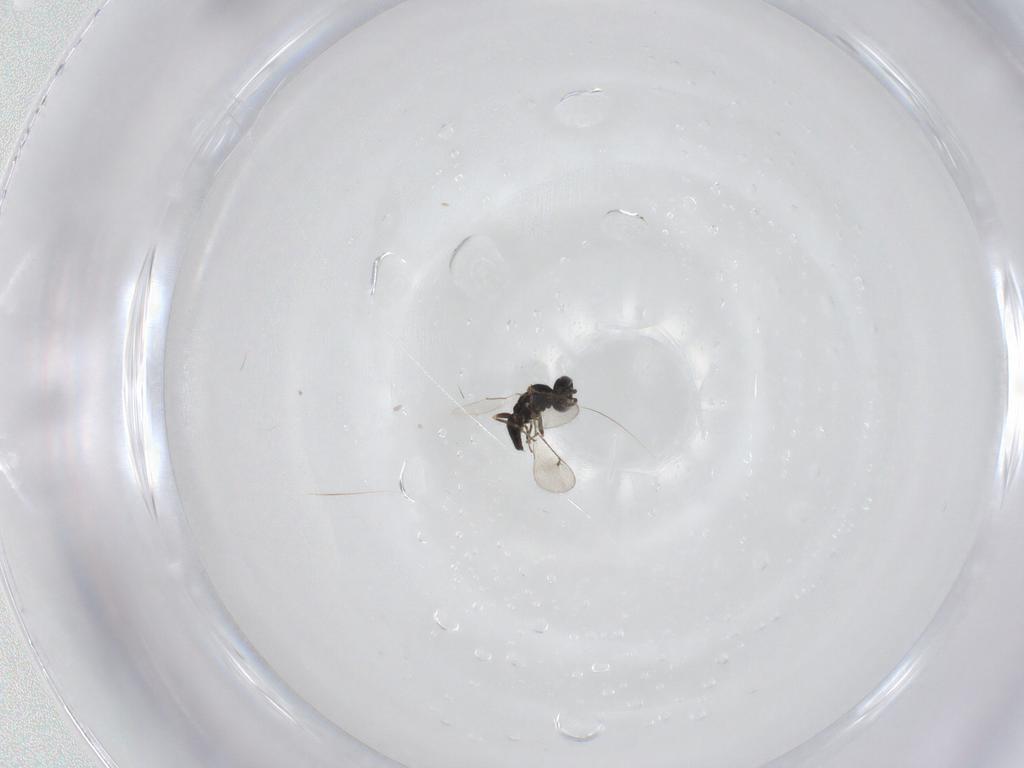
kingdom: Animalia
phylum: Arthropoda
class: Insecta
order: Hymenoptera
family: Eulophidae
